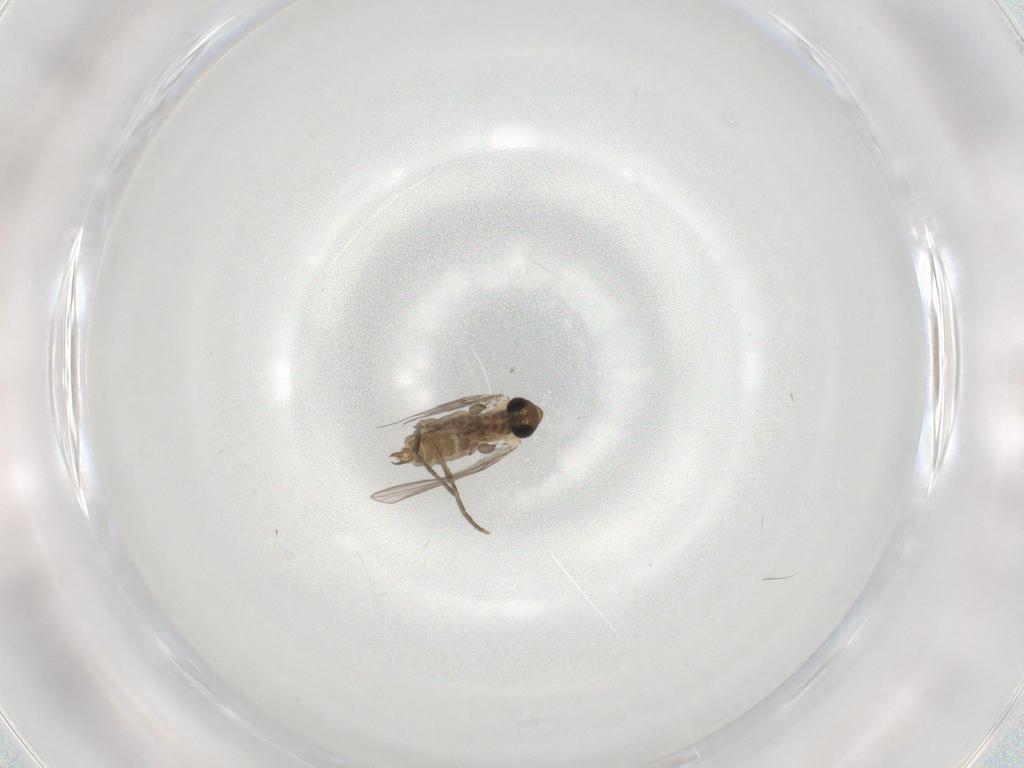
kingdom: Animalia
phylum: Arthropoda
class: Insecta
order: Diptera
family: Psychodidae
